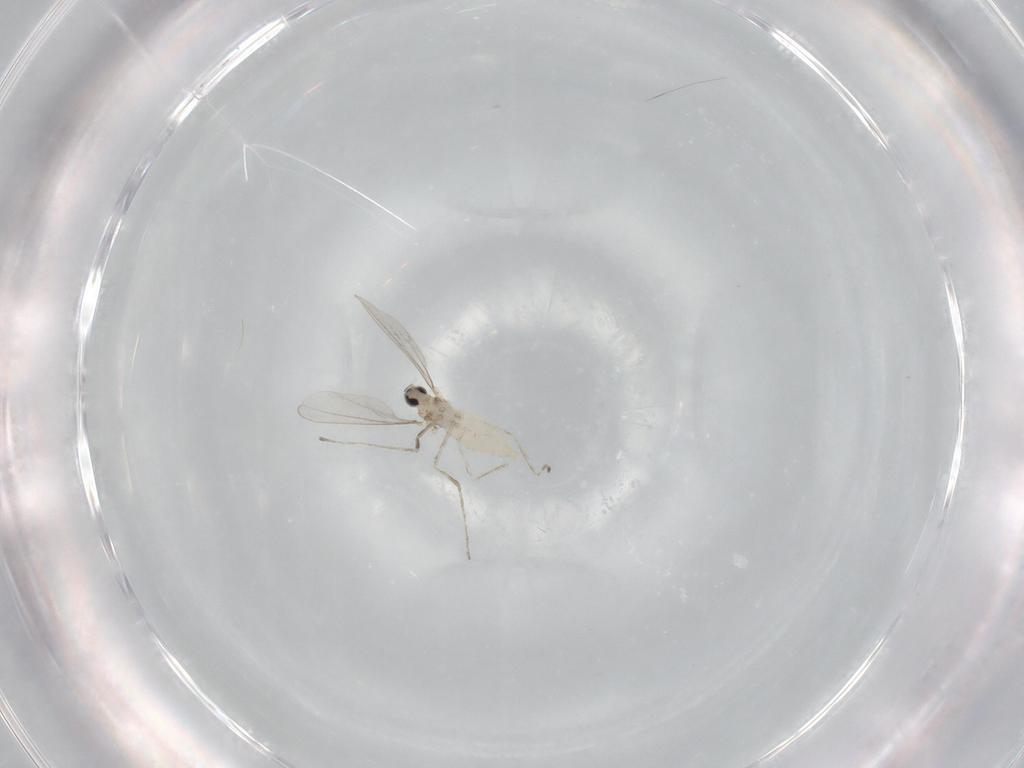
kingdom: Animalia
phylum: Arthropoda
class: Insecta
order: Diptera
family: Cecidomyiidae
